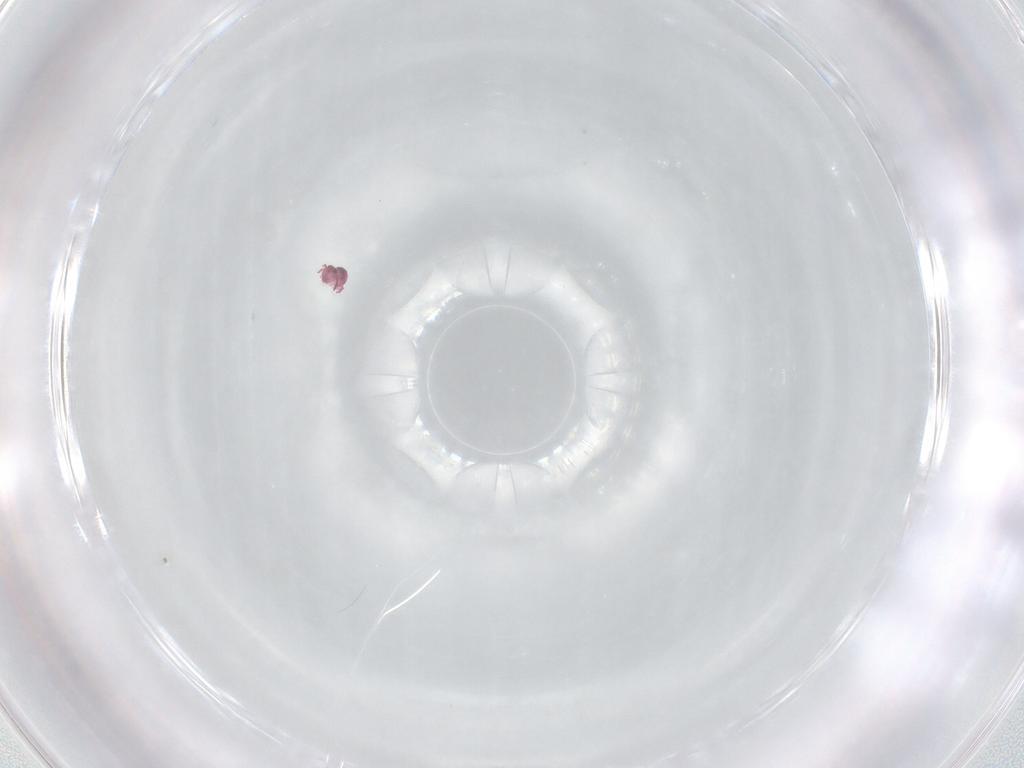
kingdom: Animalia
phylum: Arthropoda
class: Collembola
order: Symphypleona
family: Sminthurididae
